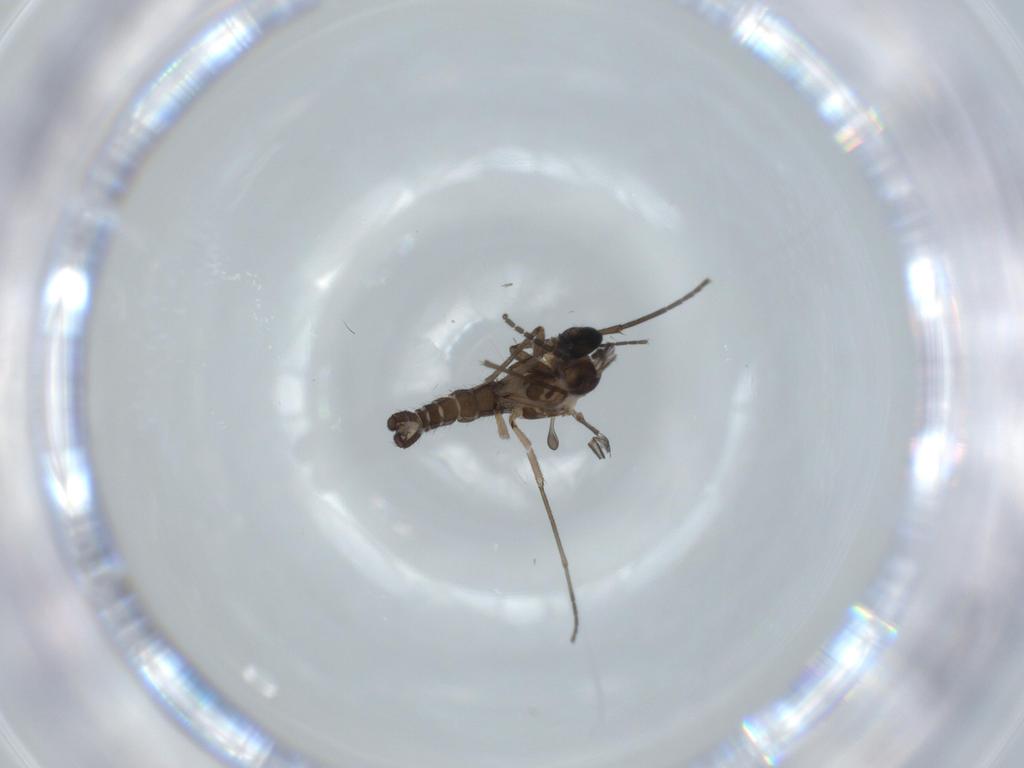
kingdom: Animalia
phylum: Arthropoda
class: Insecta
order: Diptera
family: Sciaridae
